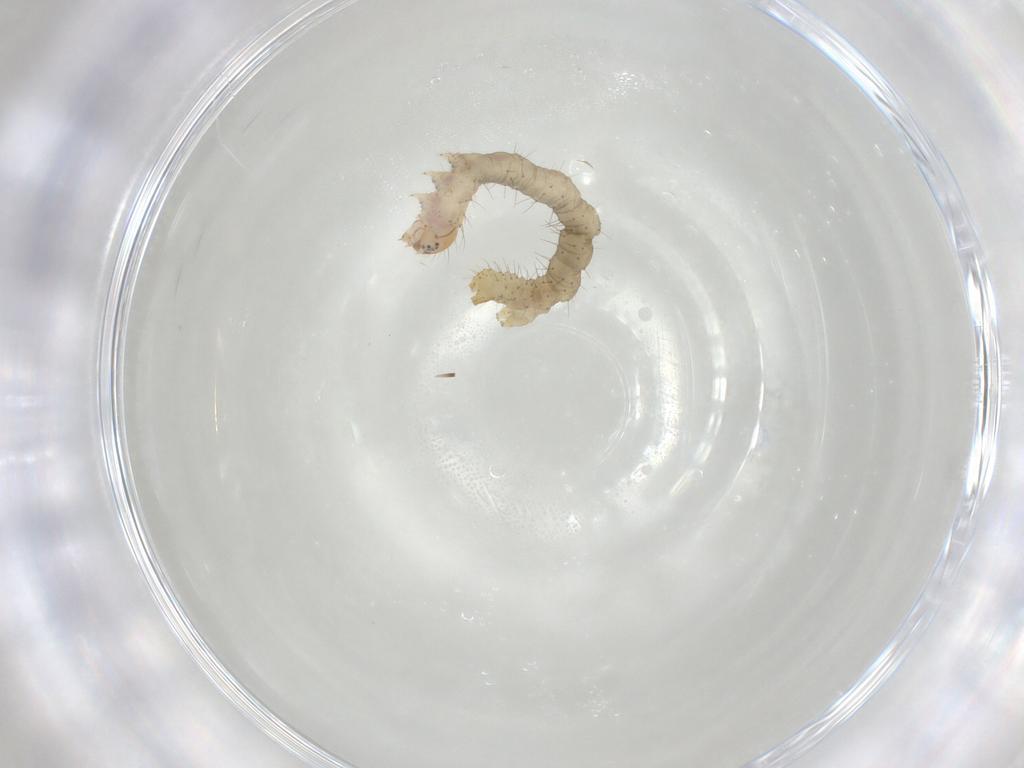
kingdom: Animalia
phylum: Arthropoda
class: Insecta
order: Lepidoptera
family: Geometridae
